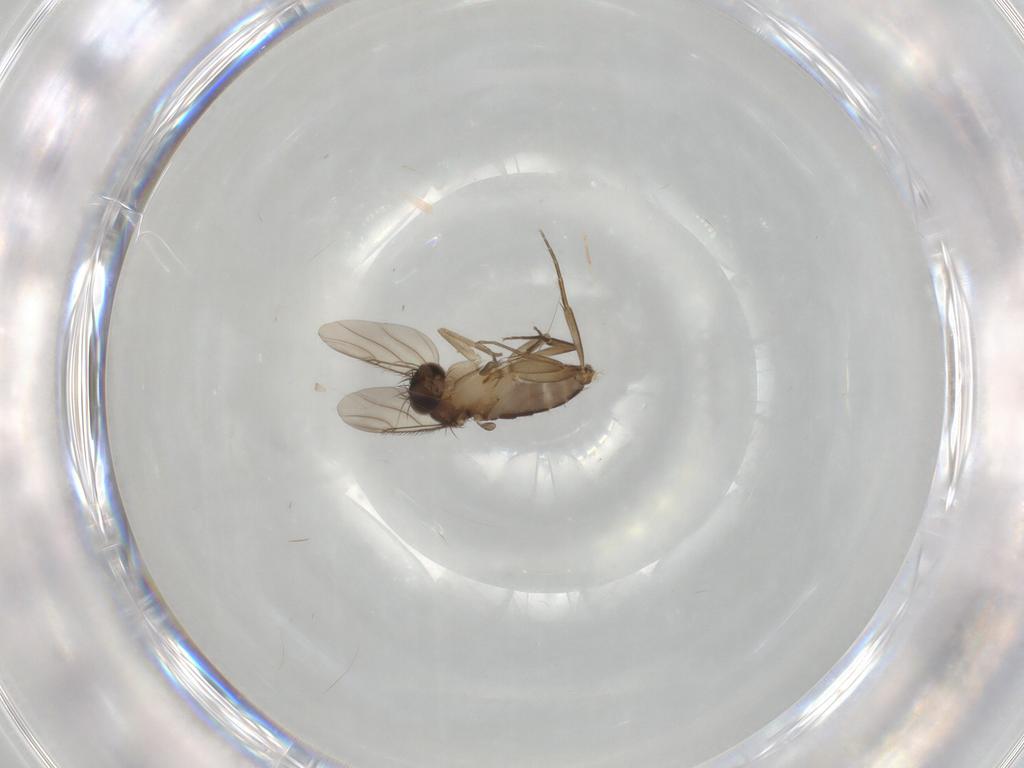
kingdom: Animalia
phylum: Arthropoda
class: Insecta
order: Diptera
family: Phoridae
